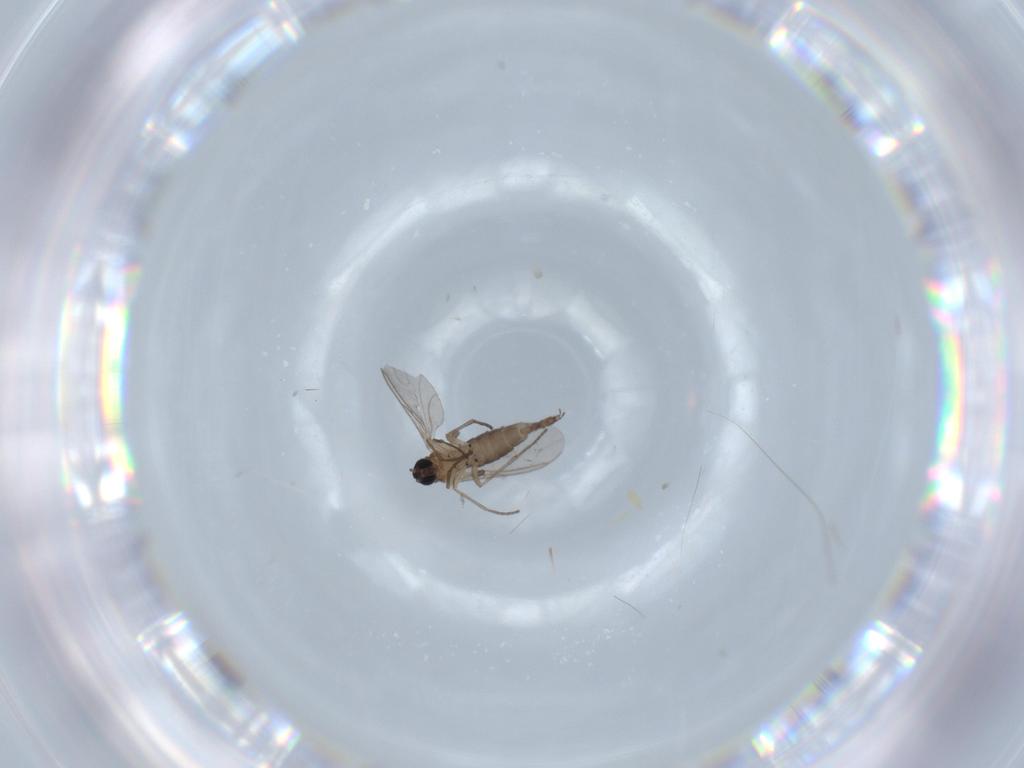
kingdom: Animalia
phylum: Arthropoda
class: Insecta
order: Diptera
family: Sciaridae
